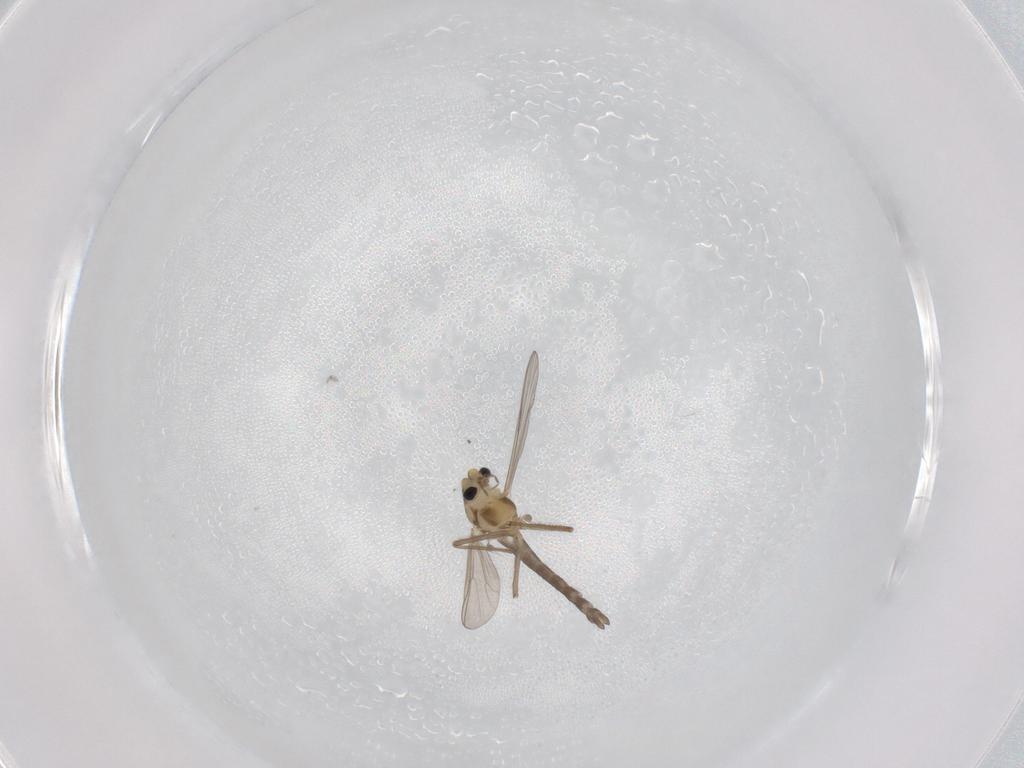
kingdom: Animalia
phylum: Arthropoda
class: Insecta
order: Diptera
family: Chironomidae
